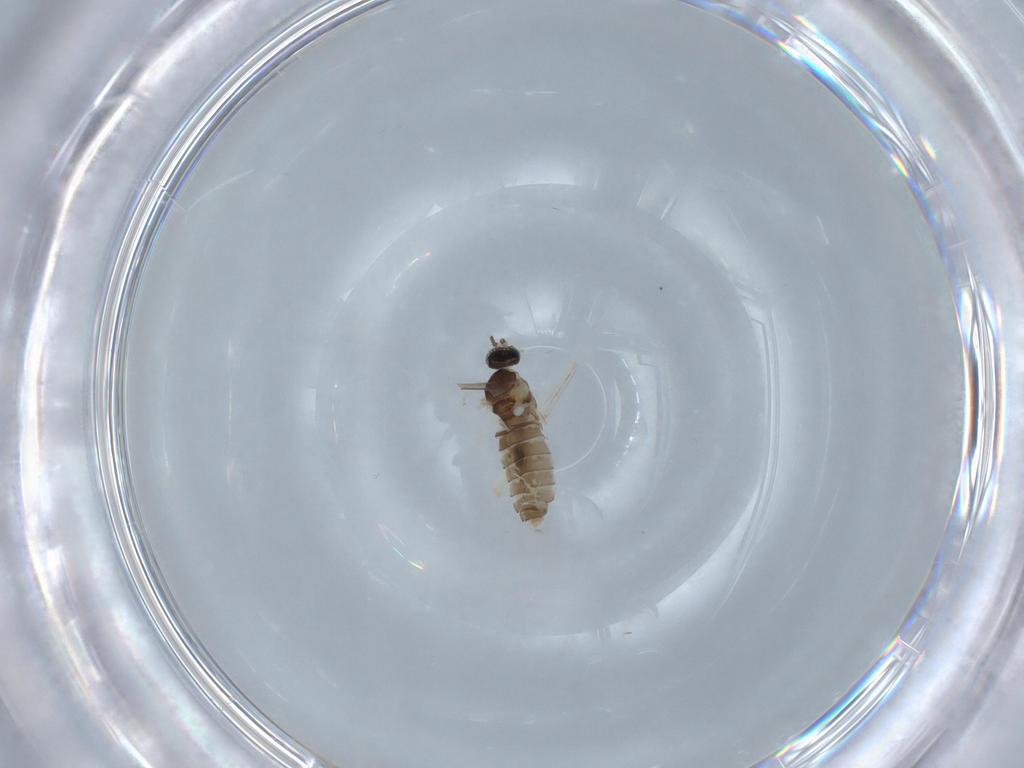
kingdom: Animalia
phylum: Arthropoda
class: Insecta
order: Diptera
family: Cecidomyiidae
